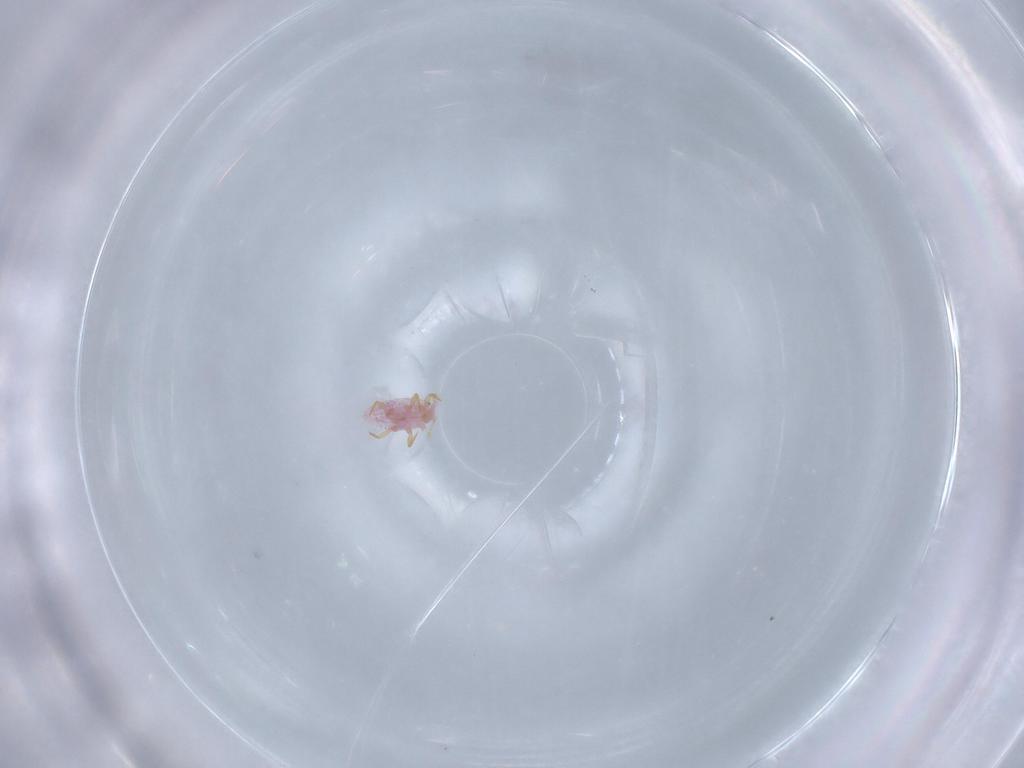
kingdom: Animalia
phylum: Arthropoda
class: Insecta
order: Hemiptera
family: Pseudococcidae
